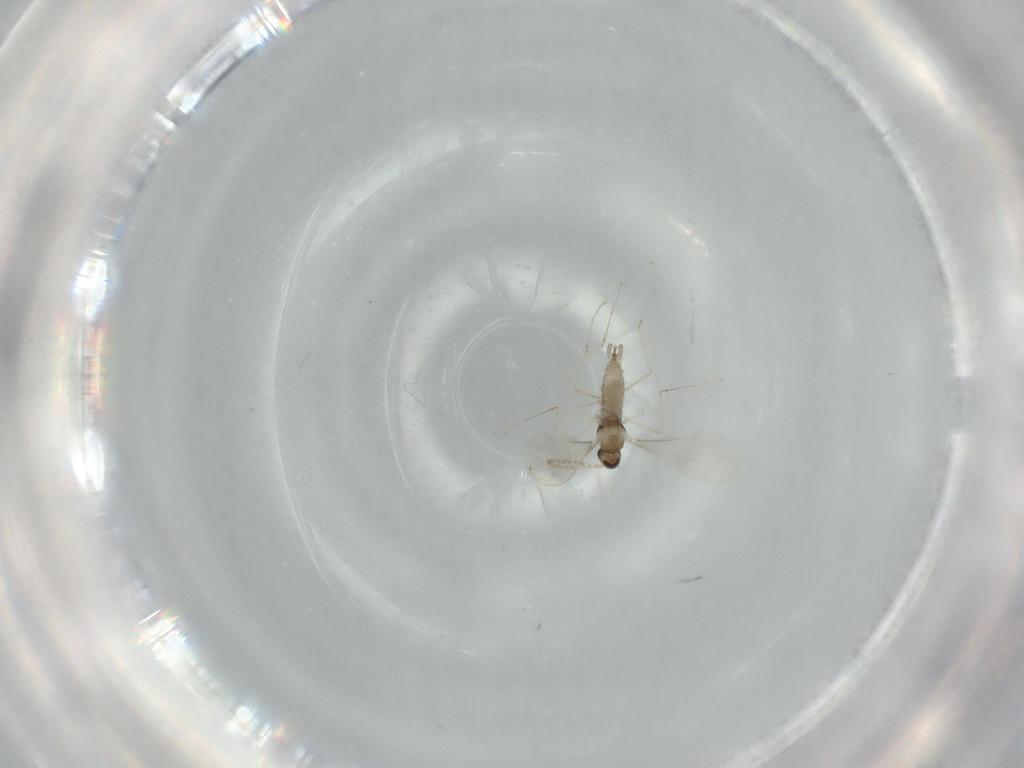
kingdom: Animalia
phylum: Arthropoda
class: Insecta
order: Diptera
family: Cecidomyiidae
